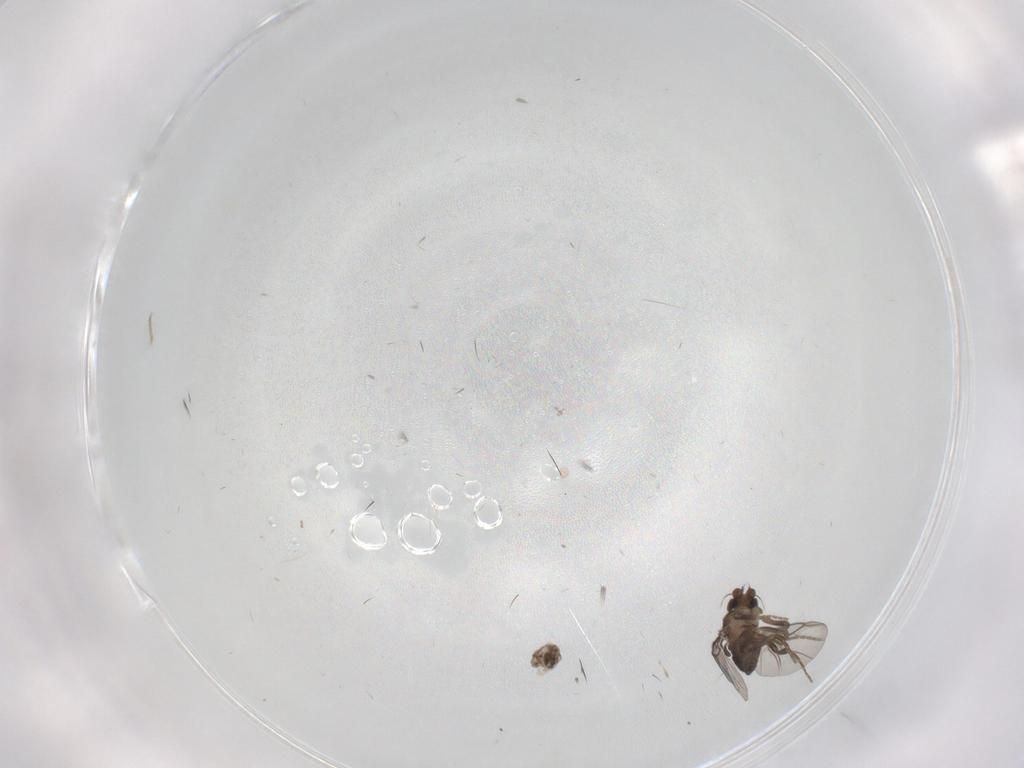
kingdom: Animalia
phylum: Arthropoda
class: Insecta
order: Diptera
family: Phoridae
